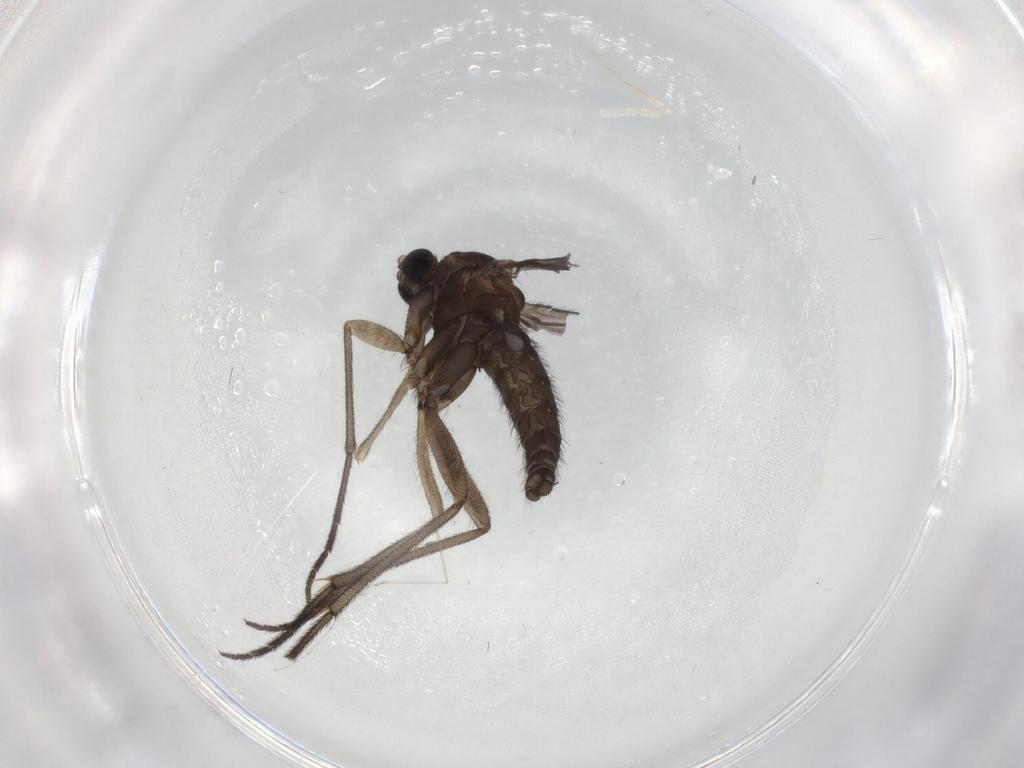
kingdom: Animalia
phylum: Arthropoda
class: Insecta
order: Diptera
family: Sciaridae
